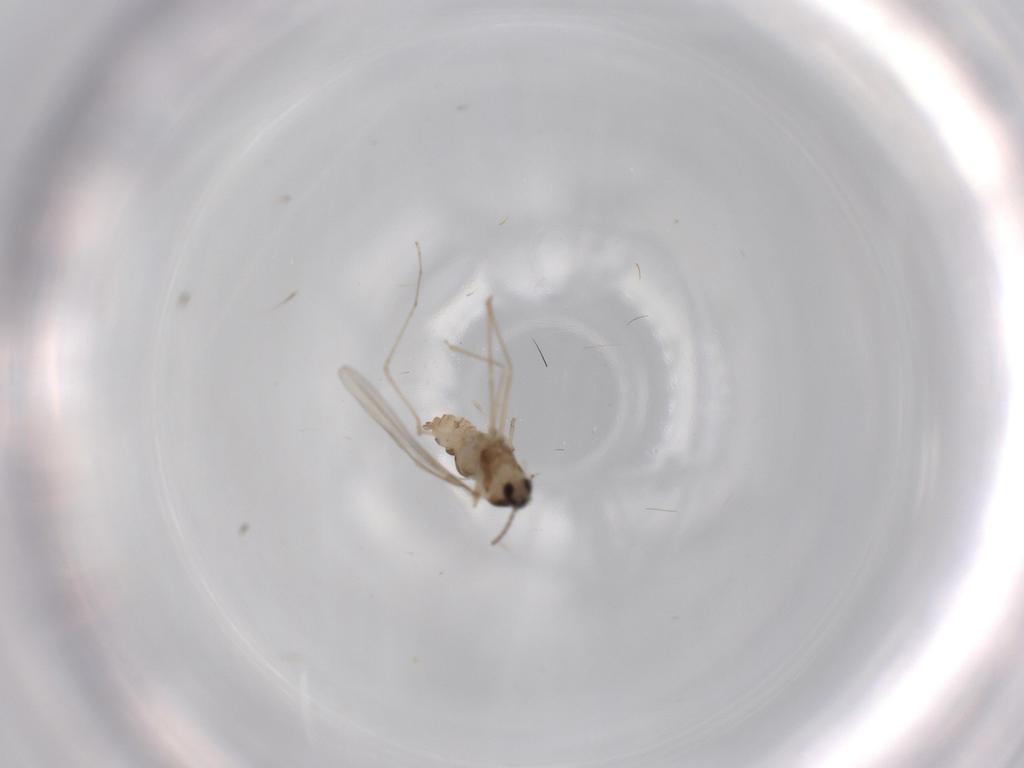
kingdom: Animalia
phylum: Arthropoda
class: Insecta
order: Diptera
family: Cecidomyiidae
